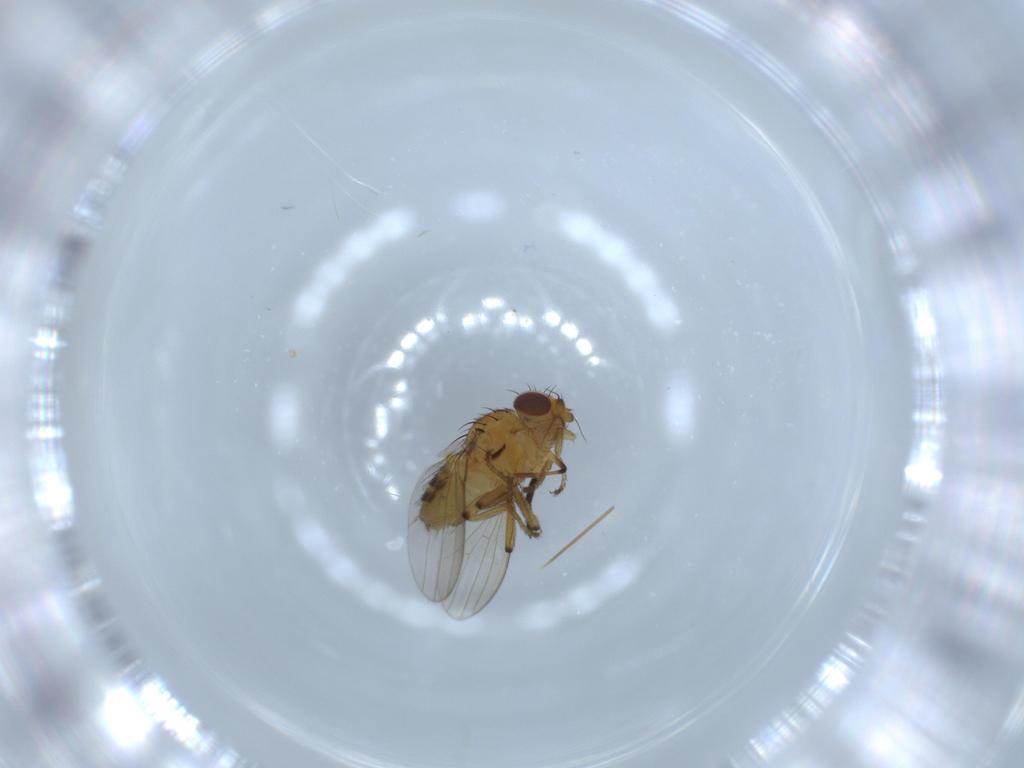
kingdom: Animalia
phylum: Arthropoda
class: Insecta
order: Diptera
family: Milichiidae
